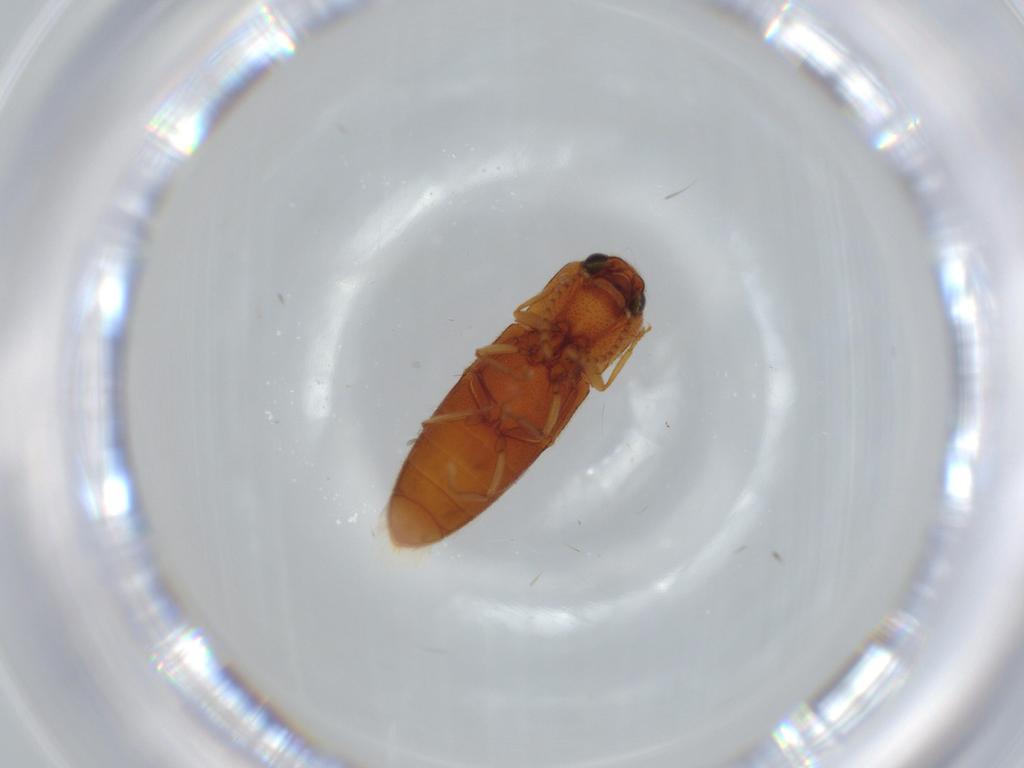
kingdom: Animalia
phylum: Arthropoda
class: Insecta
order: Coleoptera
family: Elateridae
